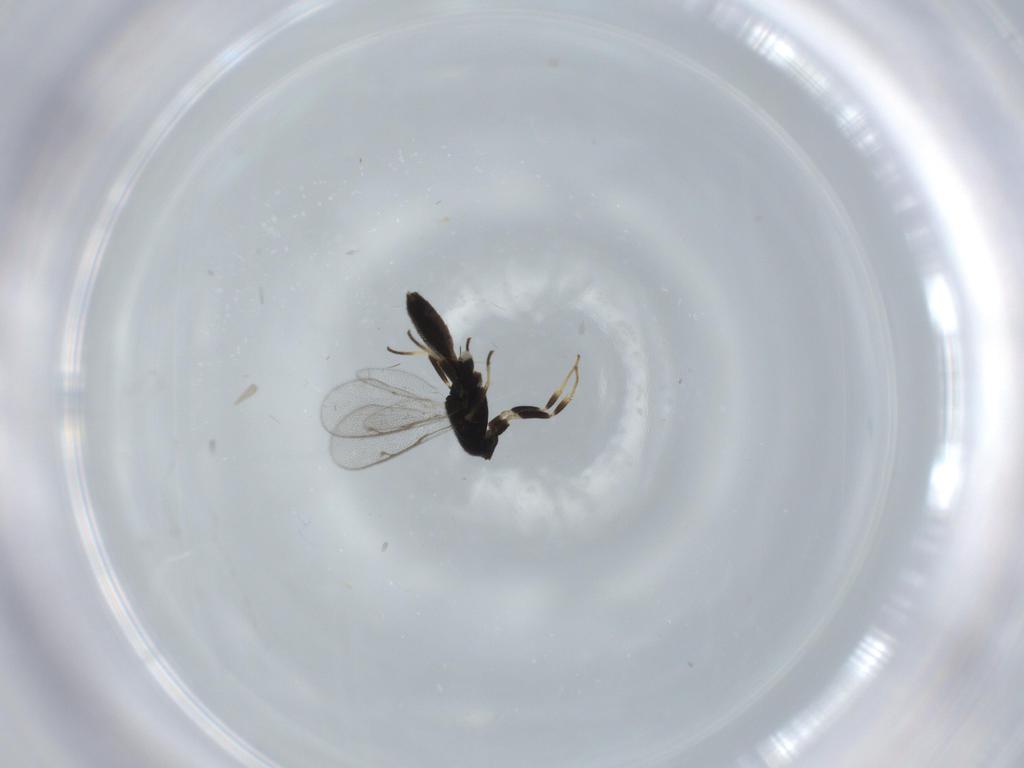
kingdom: Animalia
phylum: Arthropoda
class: Insecta
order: Hymenoptera
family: Eupelmidae
